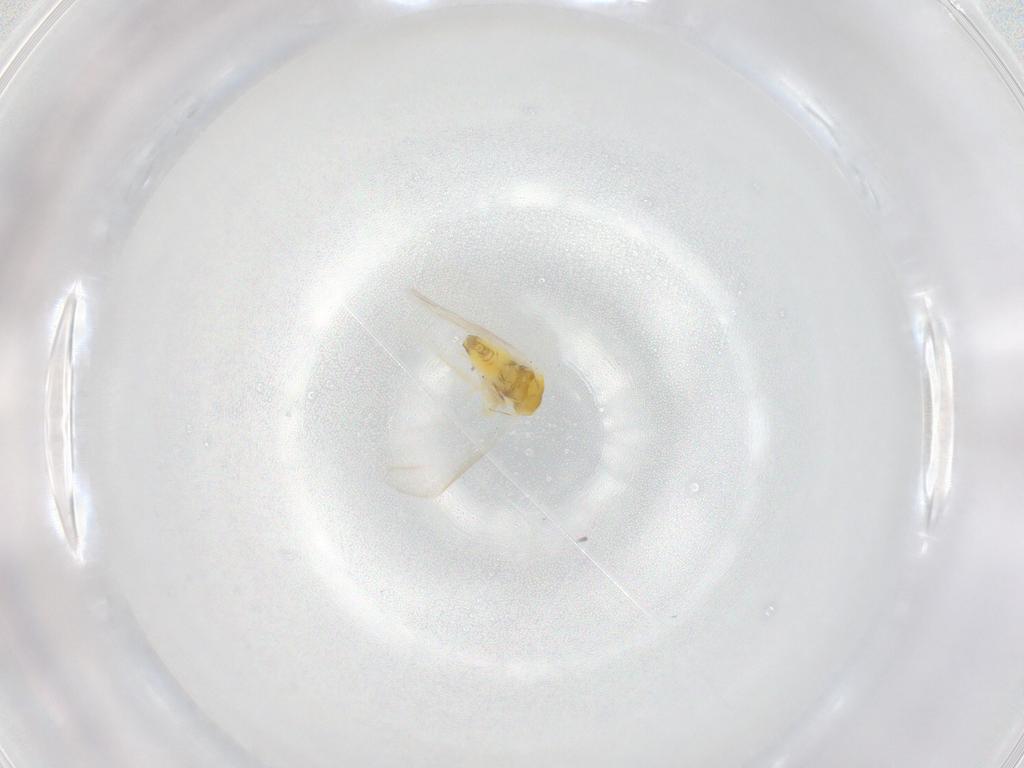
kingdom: Animalia
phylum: Arthropoda
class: Insecta
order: Hemiptera
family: Aleyrodidae
